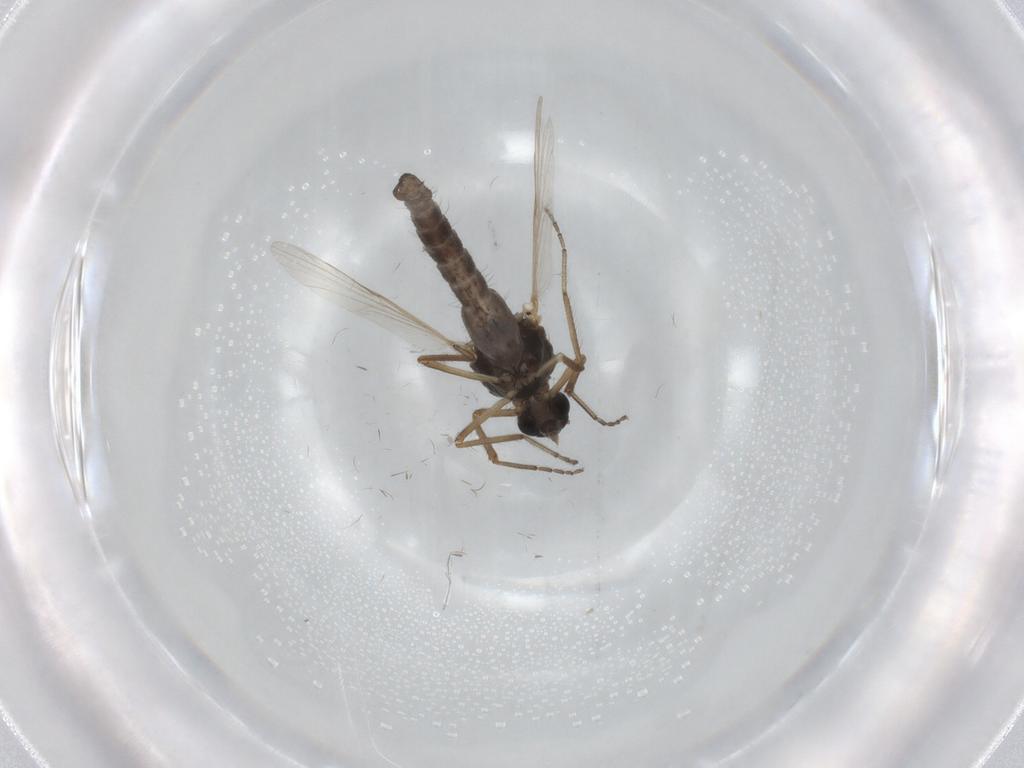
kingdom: Animalia
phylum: Arthropoda
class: Insecta
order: Diptera
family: Ceratopogonidae
